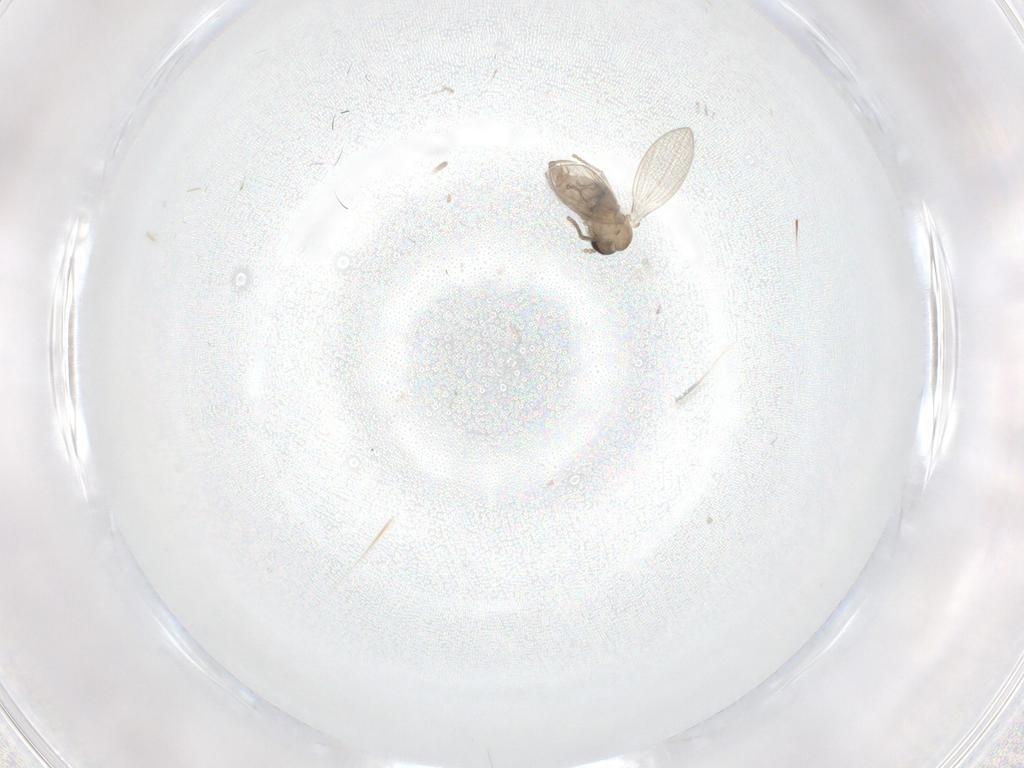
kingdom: Animalia
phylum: Arthropoda
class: Insecta
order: Diptera
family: Psychodidae
